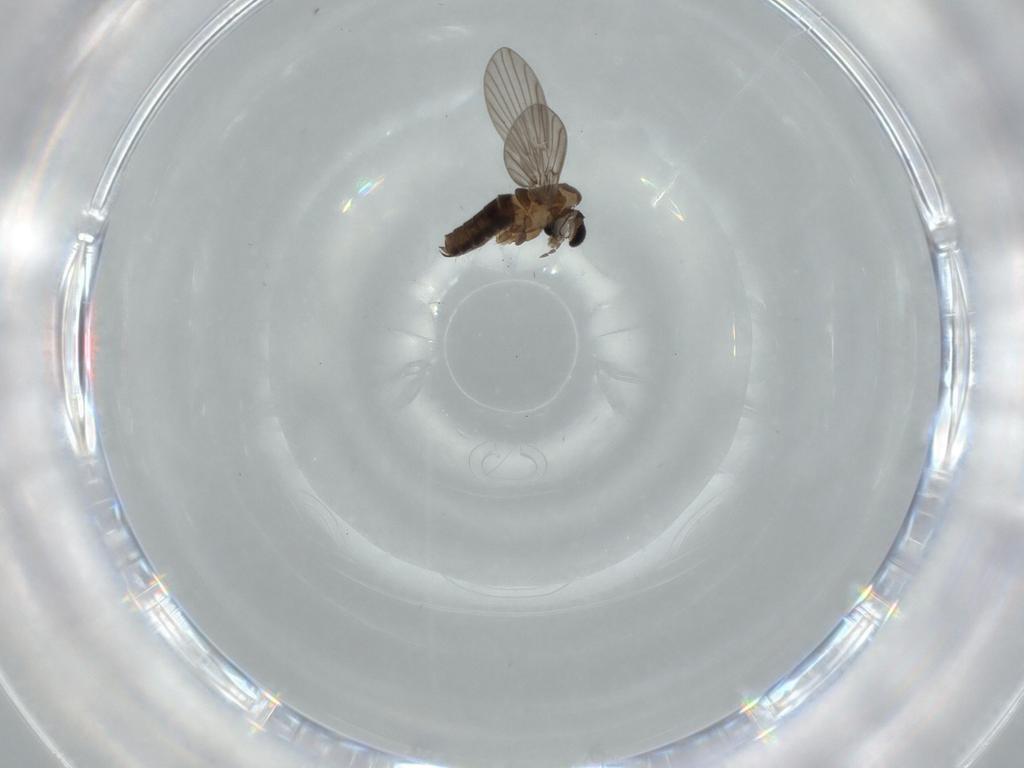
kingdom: Animalia
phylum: Arthropoda
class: Insecta
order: Diptera
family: Psychodidae
